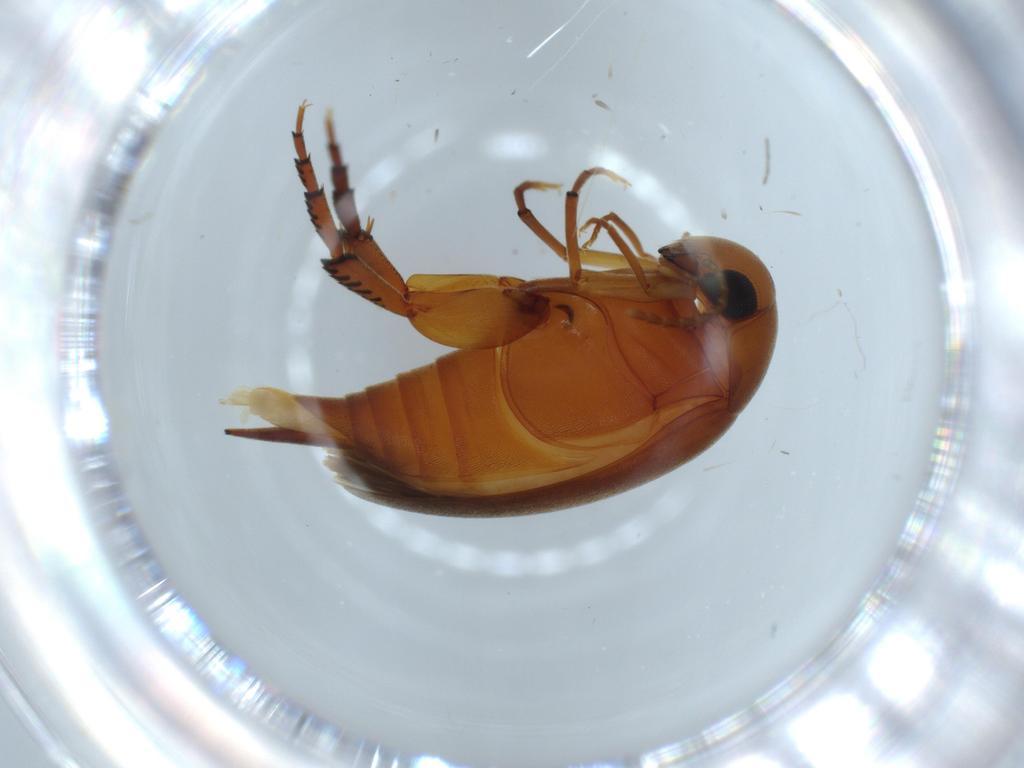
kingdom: Animalia
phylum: Arthropoda
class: Insecta
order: Coleoptera
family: Mordellidae
